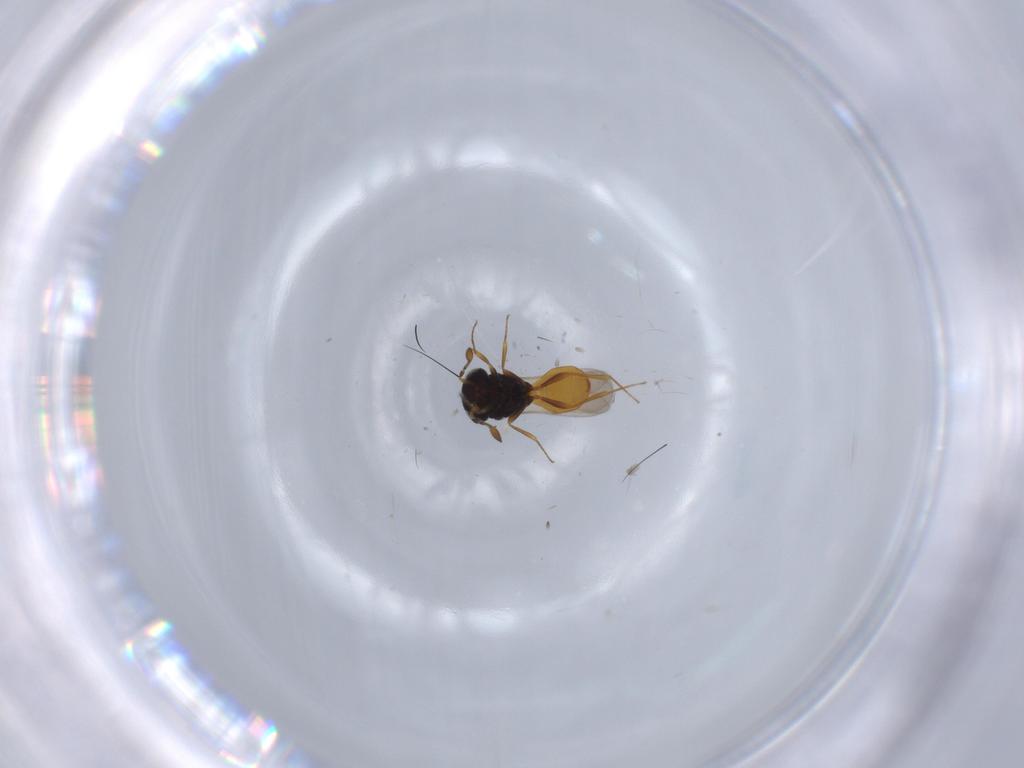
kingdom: Animalia
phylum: Arthropoda
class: Insecta
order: Hymenoptera
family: Scelionidae
